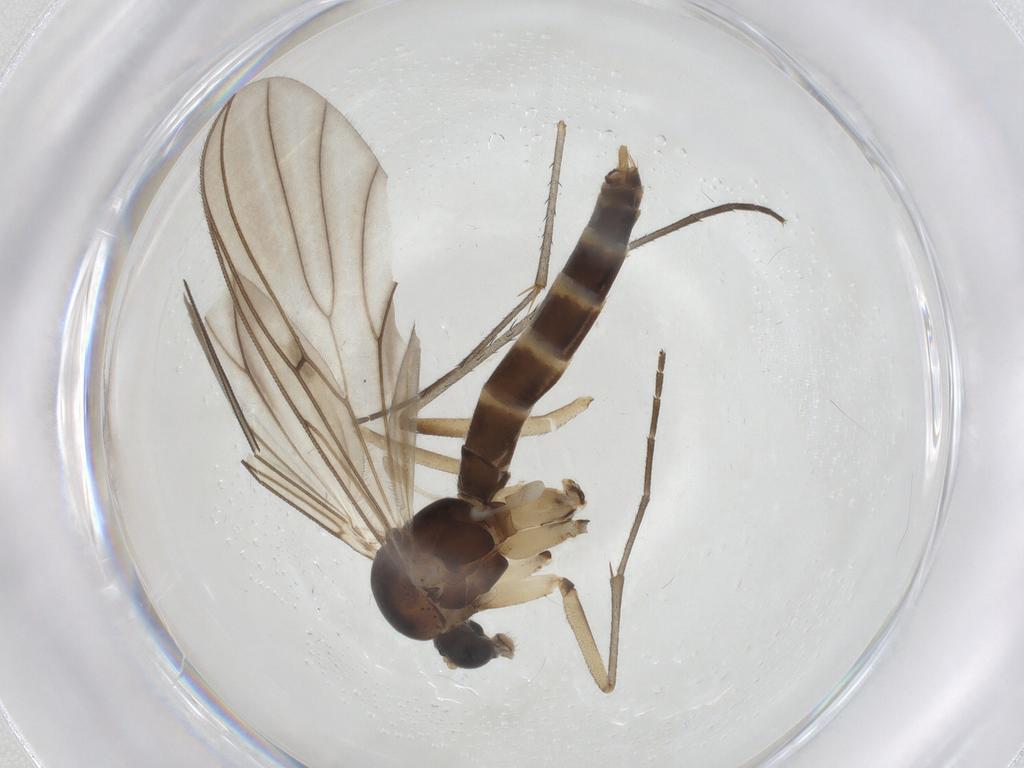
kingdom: Animalia
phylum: Arthropoda
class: Insecta
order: Diptera
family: Mycetophilidae
